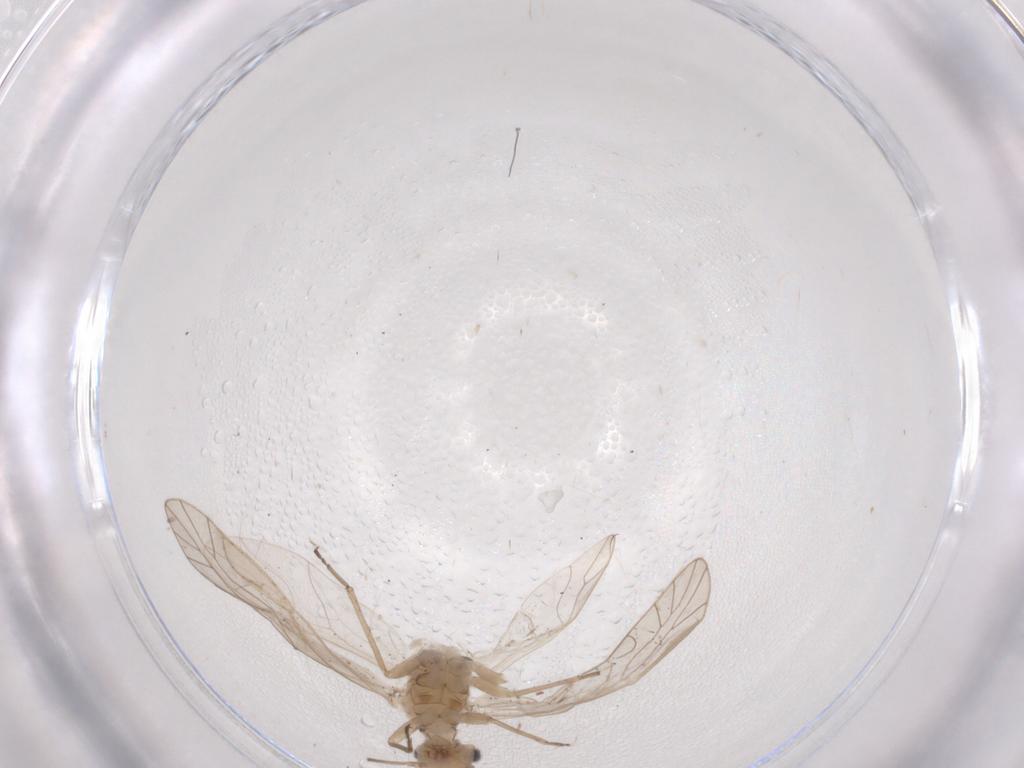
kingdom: Animalia
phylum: Arthropoda
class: Insecta
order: Psocodea
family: Elipsocidae
